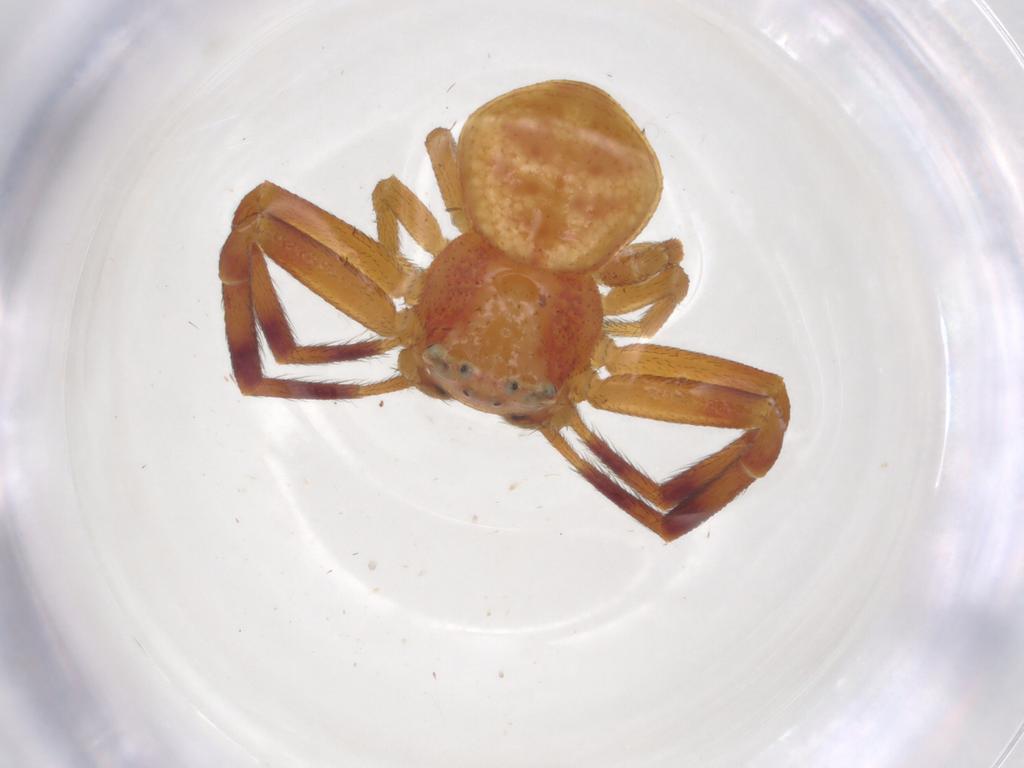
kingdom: Animalia
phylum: Arthropoda
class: Arachnida
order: Araneae
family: Thomisidae
